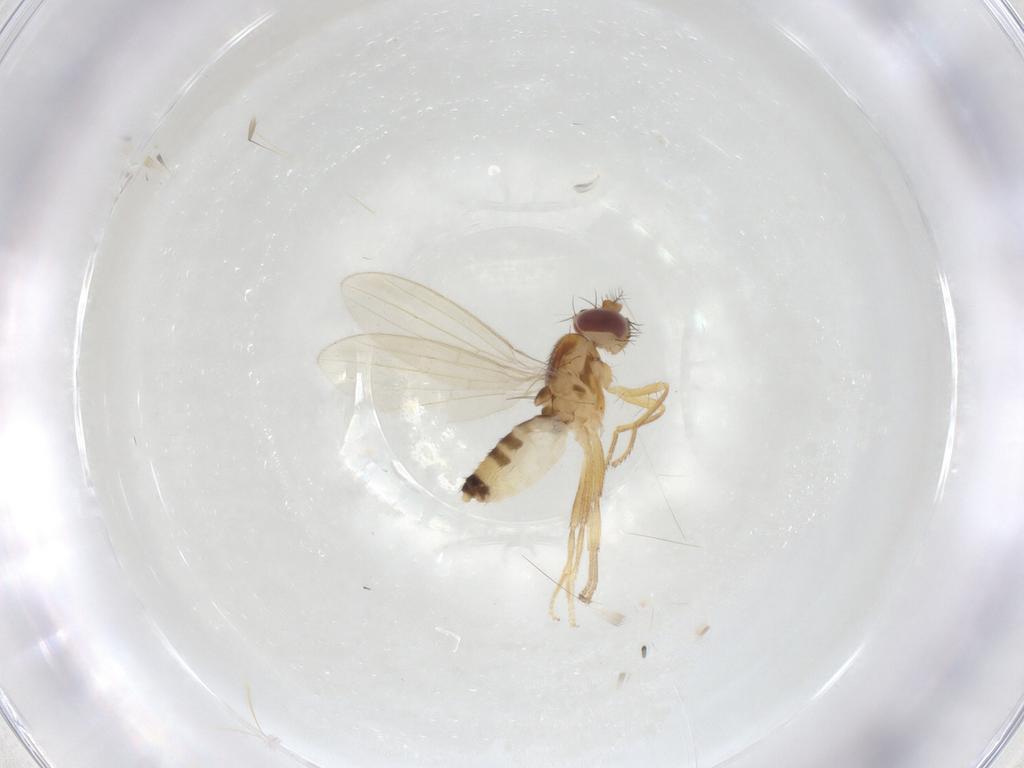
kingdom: Animalia
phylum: Arthropoda
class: Insecta
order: Diptera
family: Periscelididae
